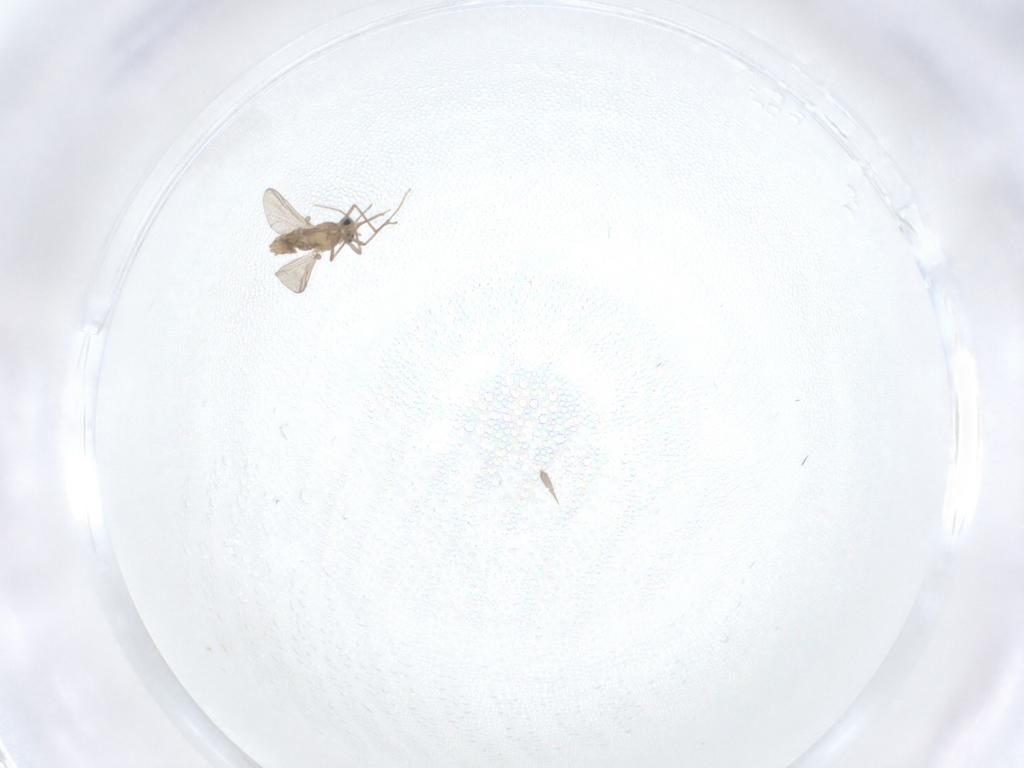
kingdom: Animalia
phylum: Arthropoda
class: Insecta
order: Diptera
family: Chironomidae
